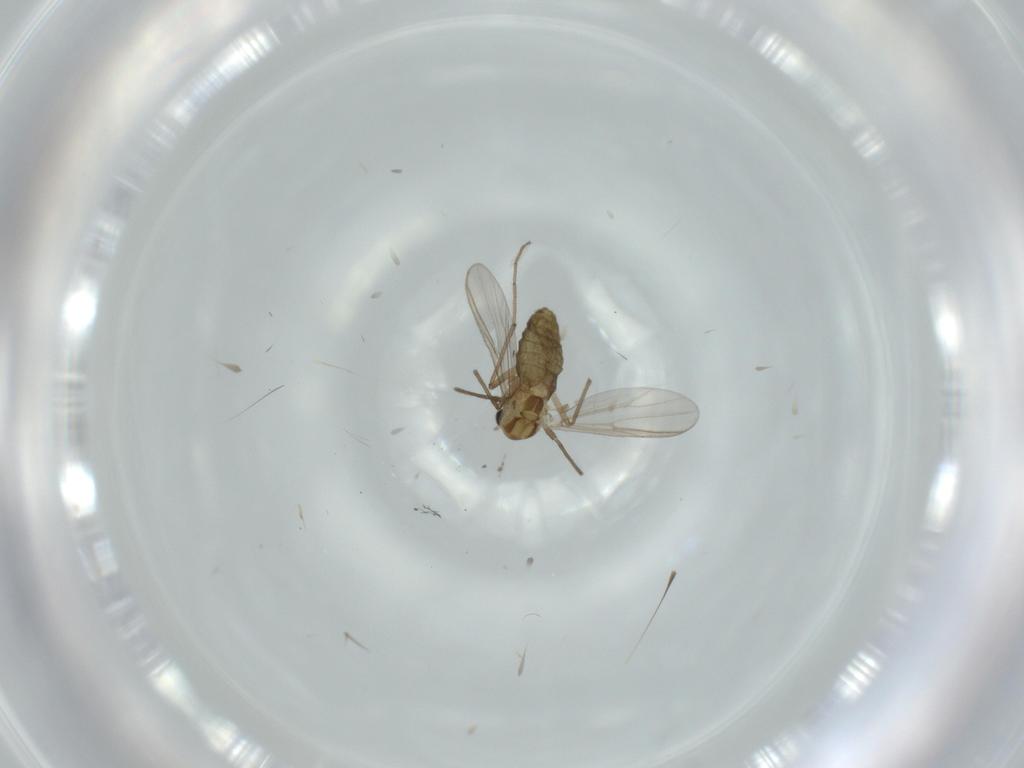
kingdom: Animalia
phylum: Arthropoda
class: Insecta
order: Diptera
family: Chironomidae
